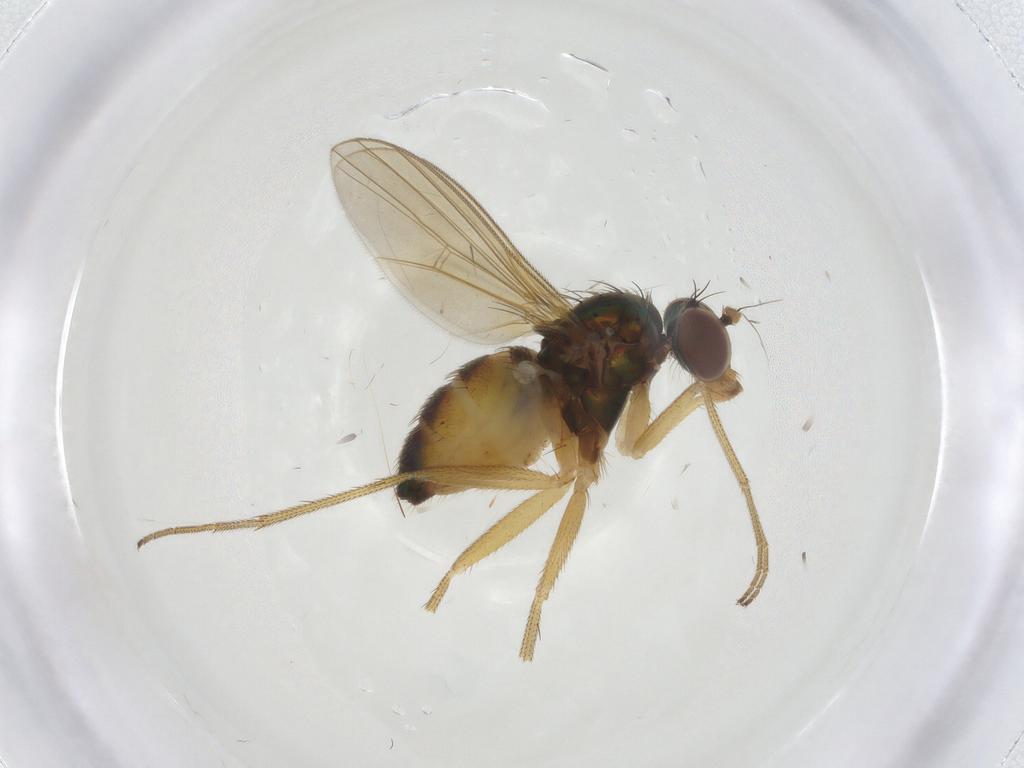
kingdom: Animalia
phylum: Arthropoda
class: Insecta
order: Diptera
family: Dolichopodidae
